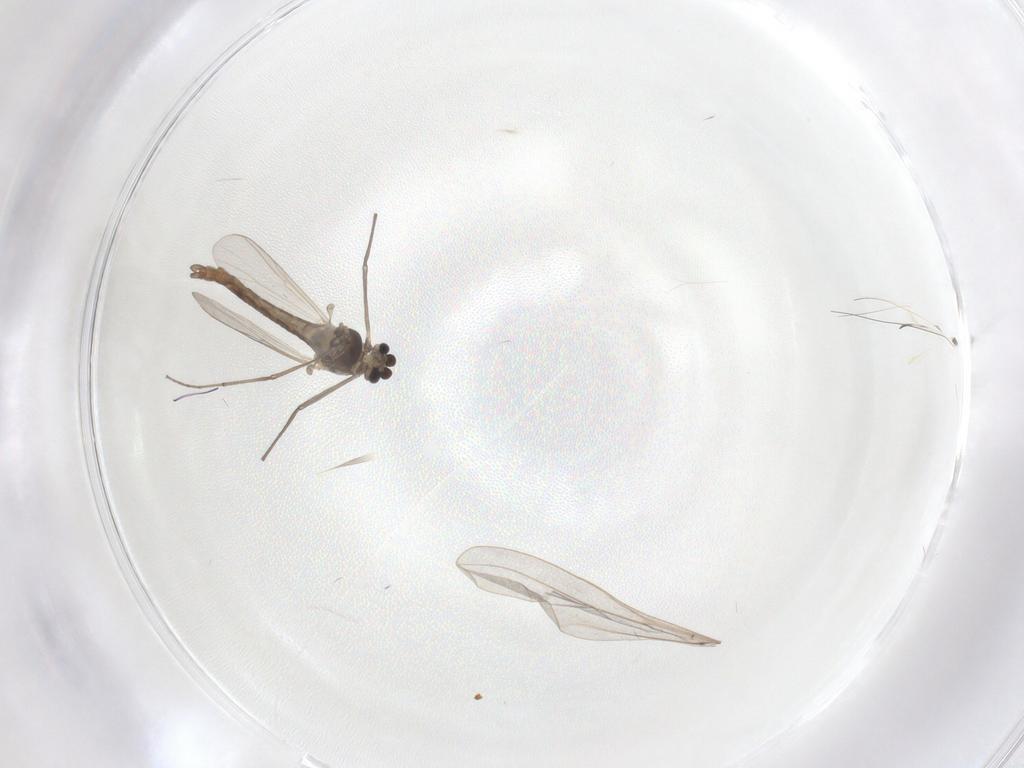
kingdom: Animalia
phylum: Arthropoda
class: Insecta
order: Diptera
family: Chironomidae
